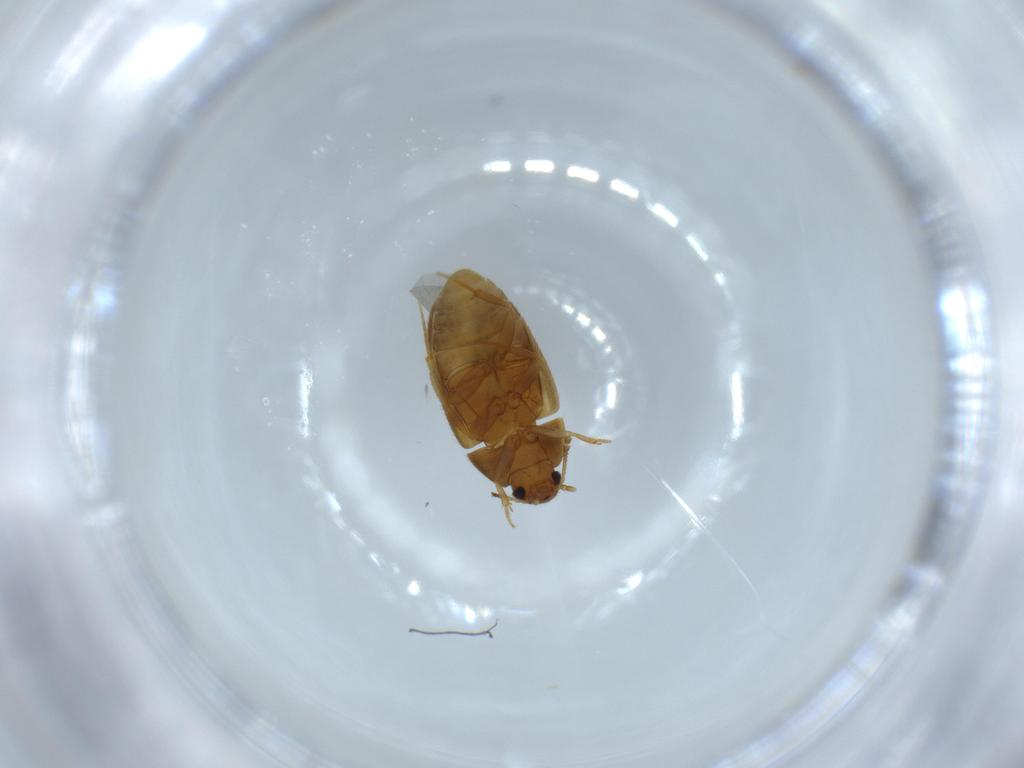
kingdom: Animalia
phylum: Arthropoda
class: Insecta
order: Coleoptera
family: Mycetophagidae
